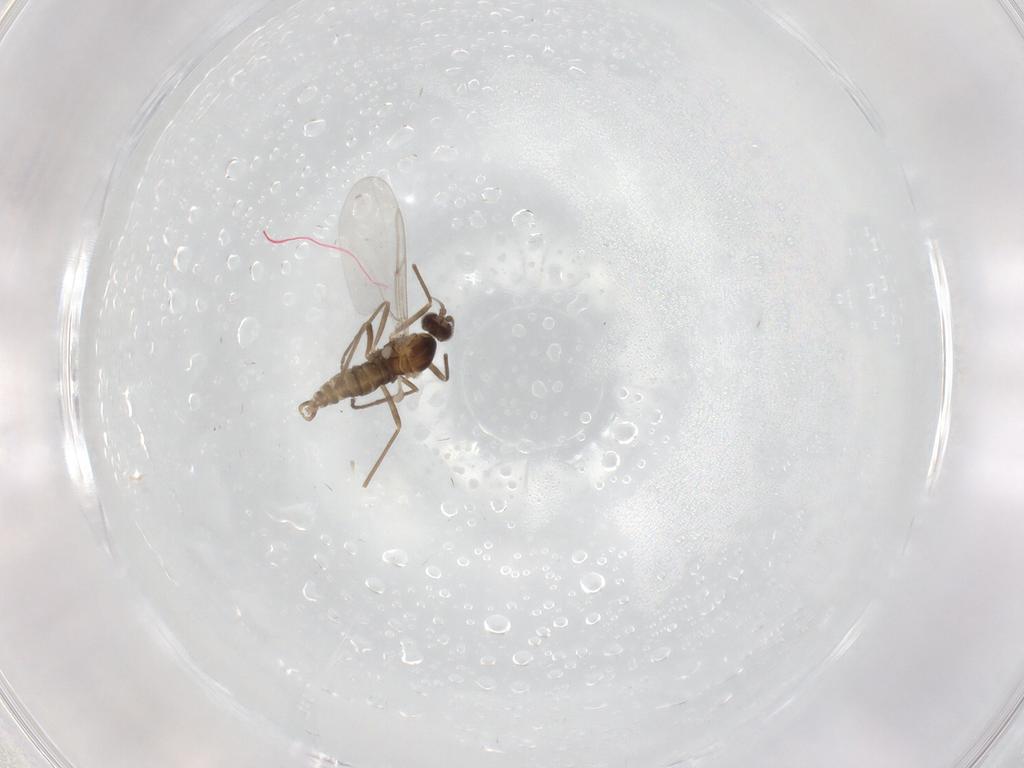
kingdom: Animalia
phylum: Arthropoda
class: Insecta
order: Diptera
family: Cecidomyiidae
